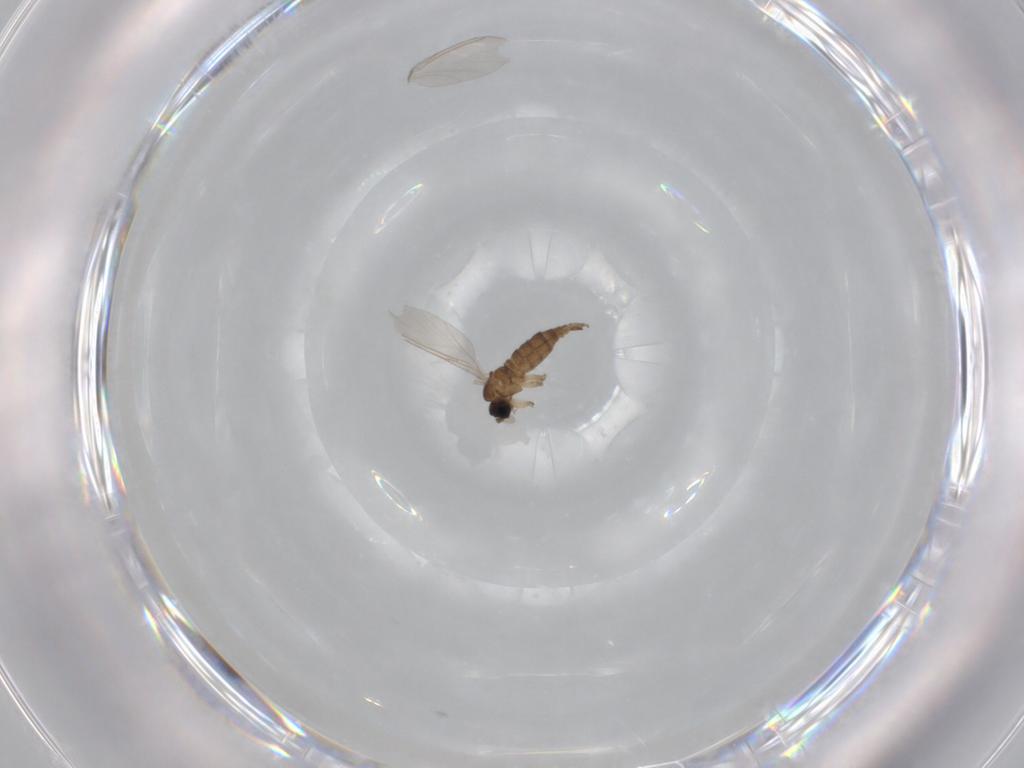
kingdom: Animalia
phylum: Arthropoda
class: Insecta
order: Diptera
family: Sciaridae
